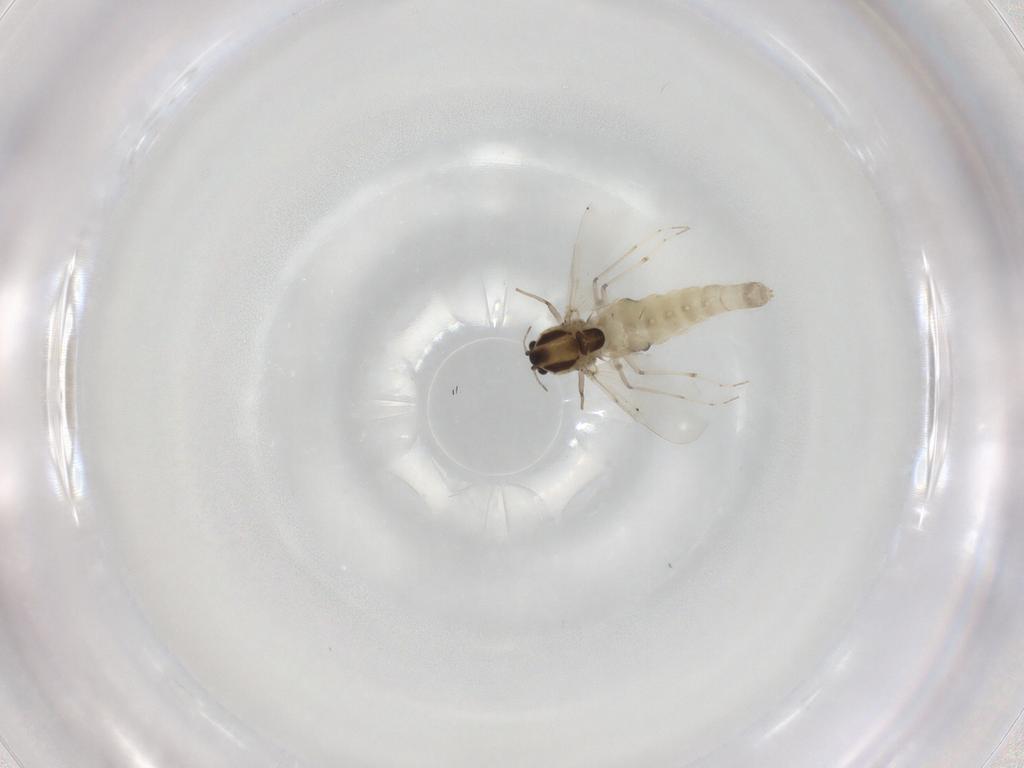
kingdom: Animalia
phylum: Arthropoda
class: Insecta
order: Diptera
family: Chironomidae
